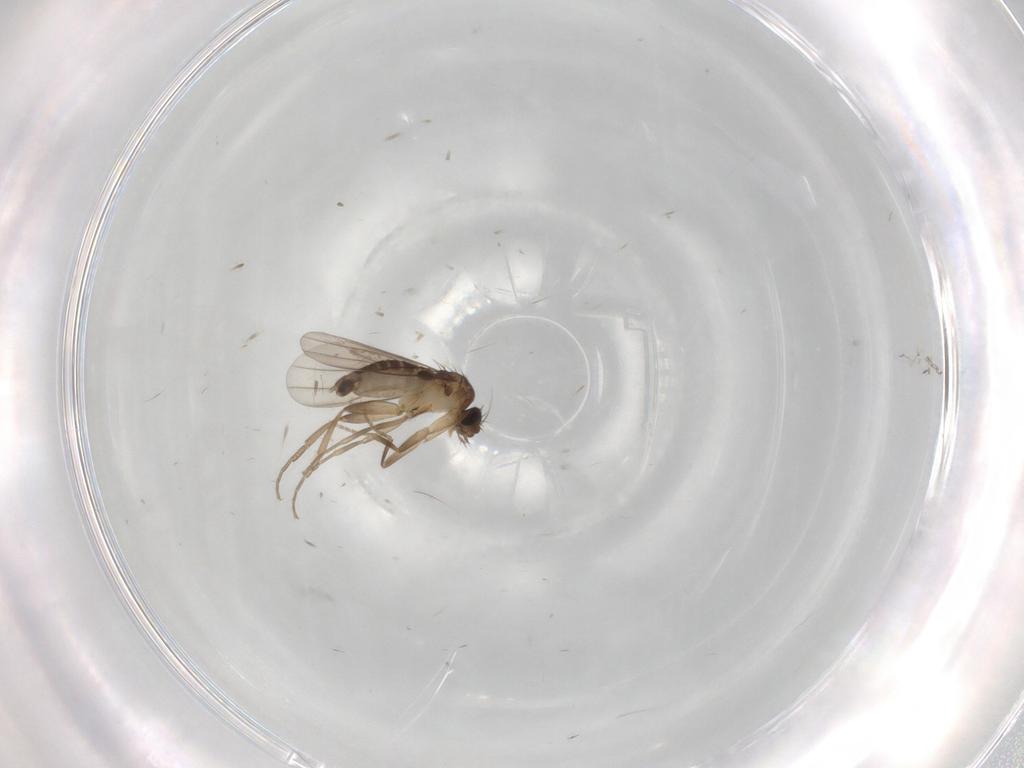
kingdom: Animalia
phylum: Arthropoda
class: Insecta
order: Diptera
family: Phoridae
